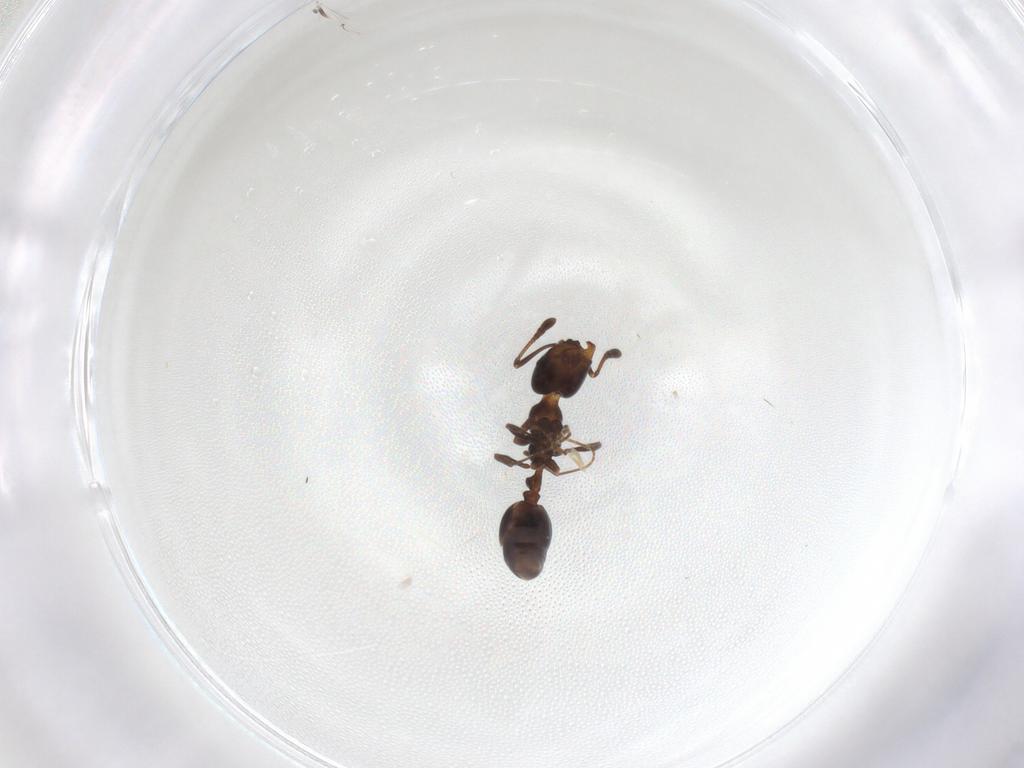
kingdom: Animalia
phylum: Arthropoda
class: Insecta
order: Hymenoptera
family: Formicidae
